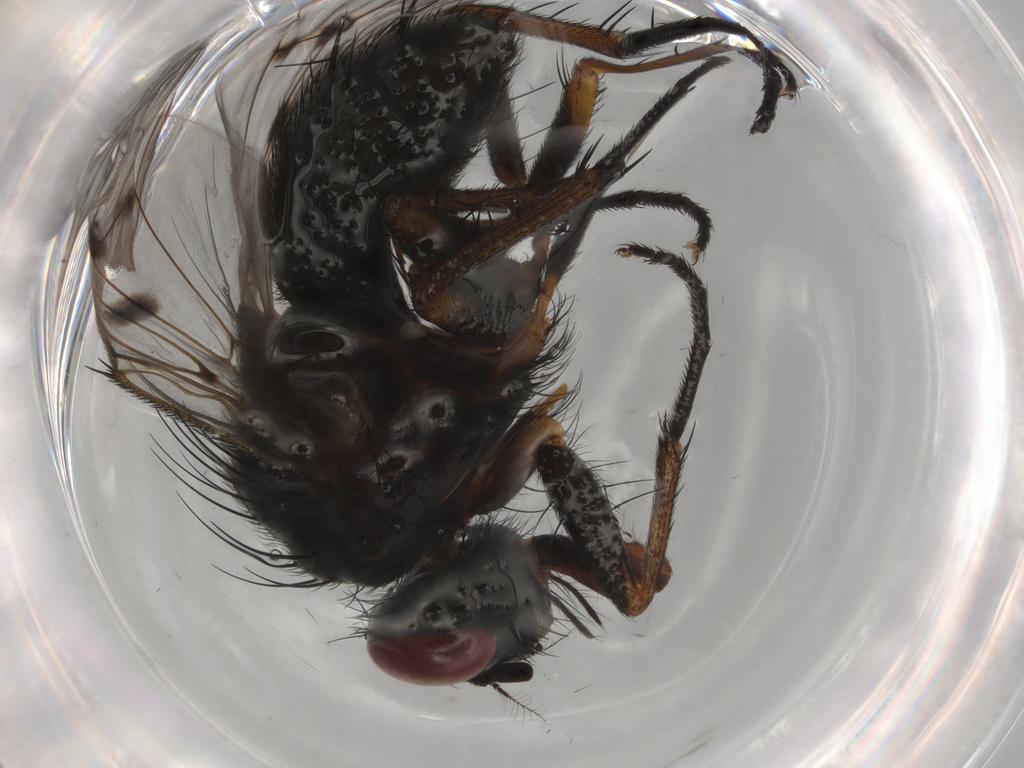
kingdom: Animalia
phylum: Arthropoda
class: Insecta
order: Diptera
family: Muscidae
